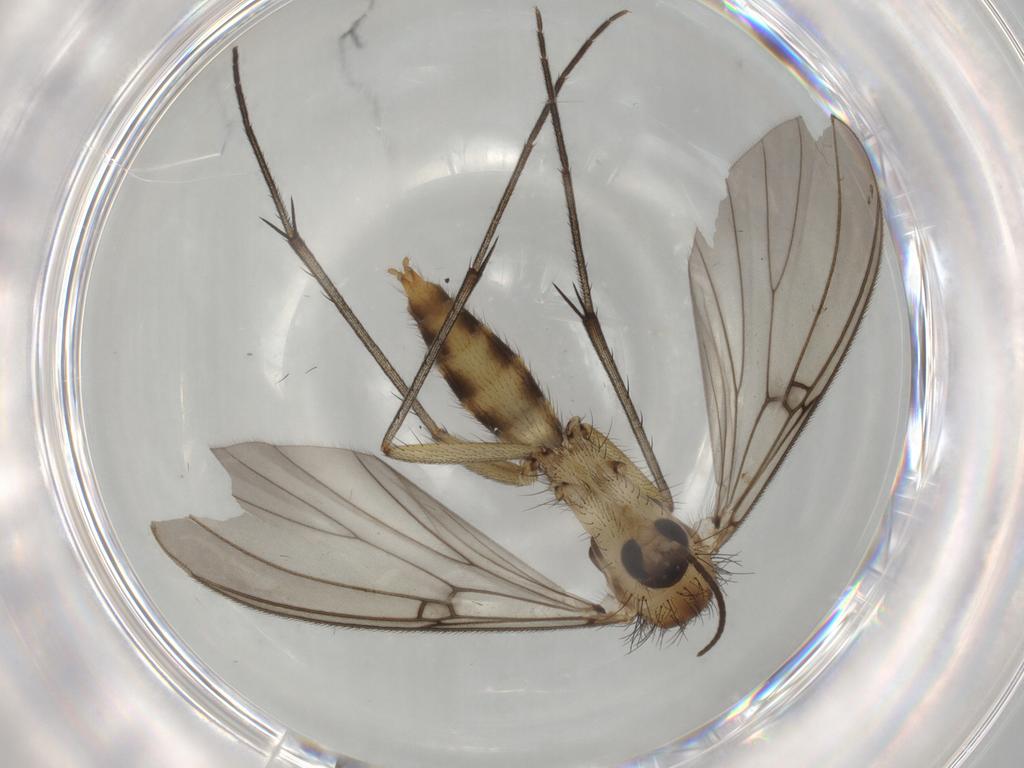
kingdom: Animalia
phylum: Arthropoda
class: Insecta
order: Diptera
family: Mycetophilidae
